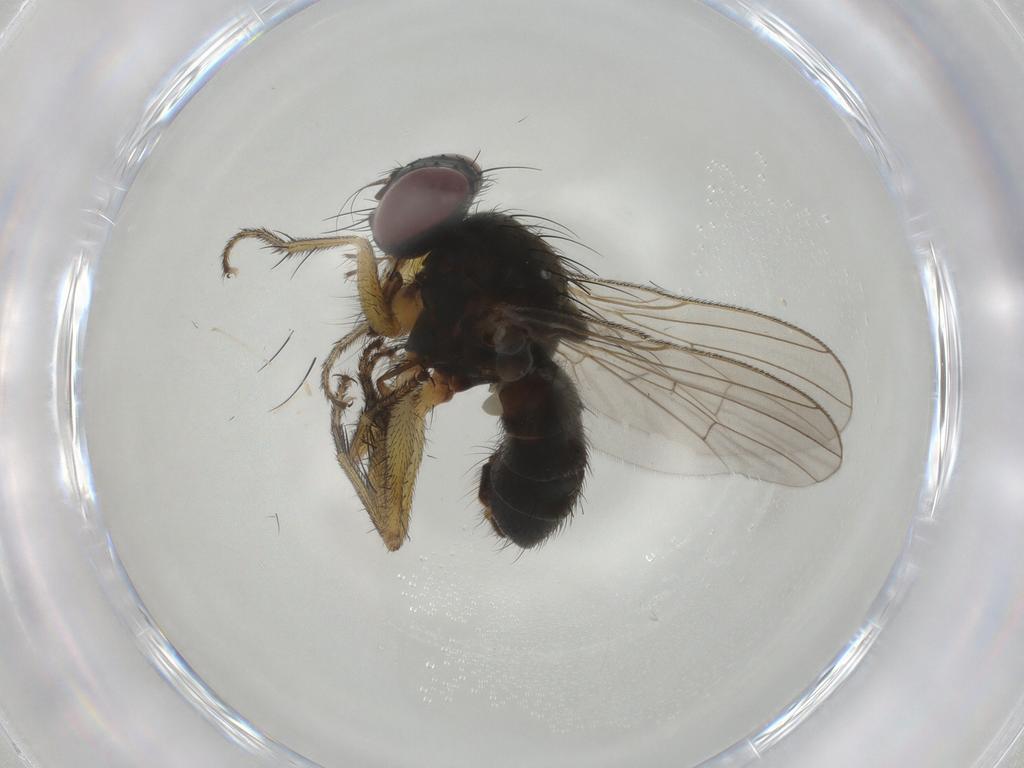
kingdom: Animalia
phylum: Arthropoda
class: Insecta
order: Diptera
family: Muscidae
